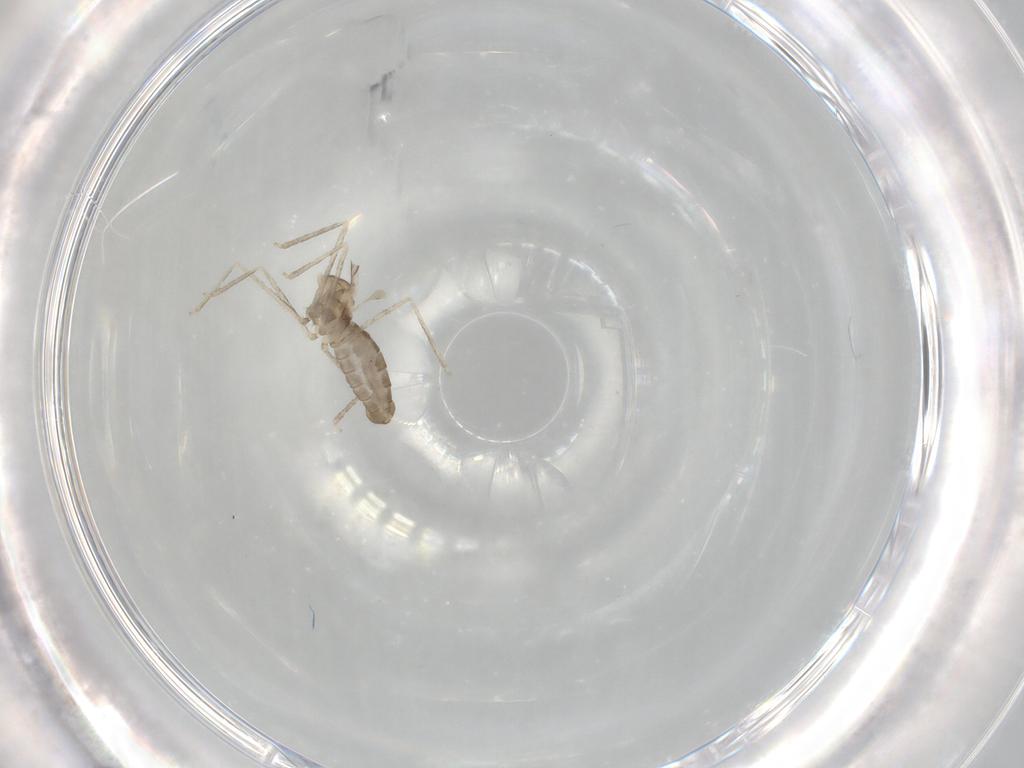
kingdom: Animalia
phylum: Arthropoda
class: Insecta
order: Diptera
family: Cecidomyiidae
